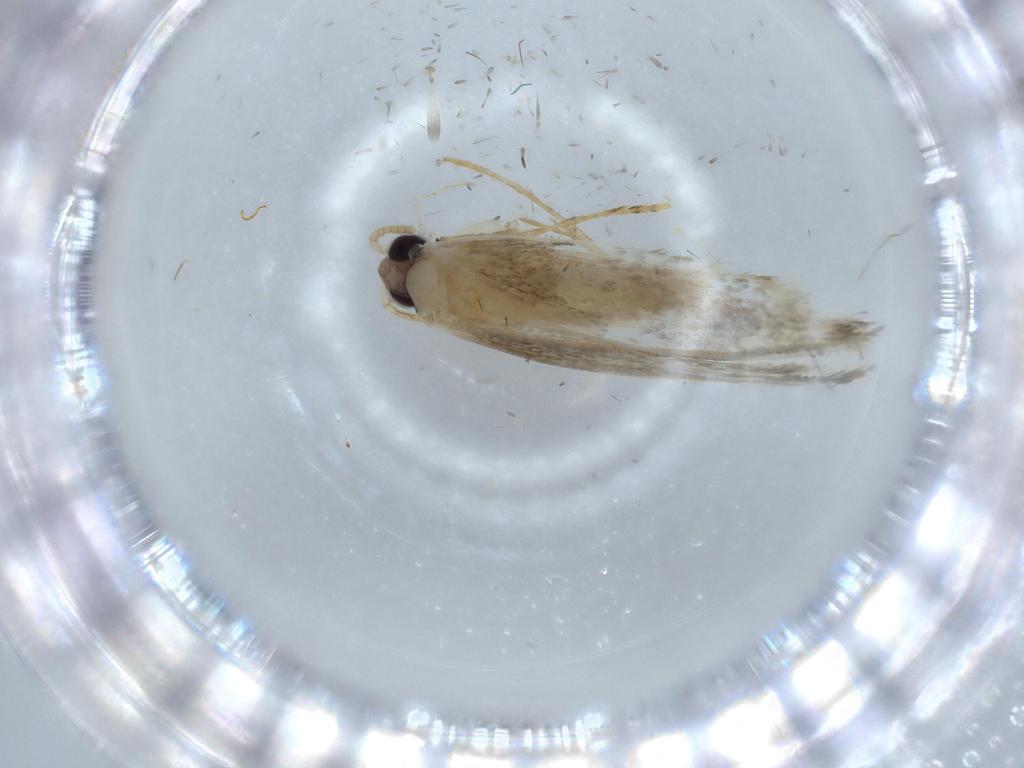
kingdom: Animalia
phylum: Arthropoda
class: Insecta
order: Lepidoptera
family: Tineidae
